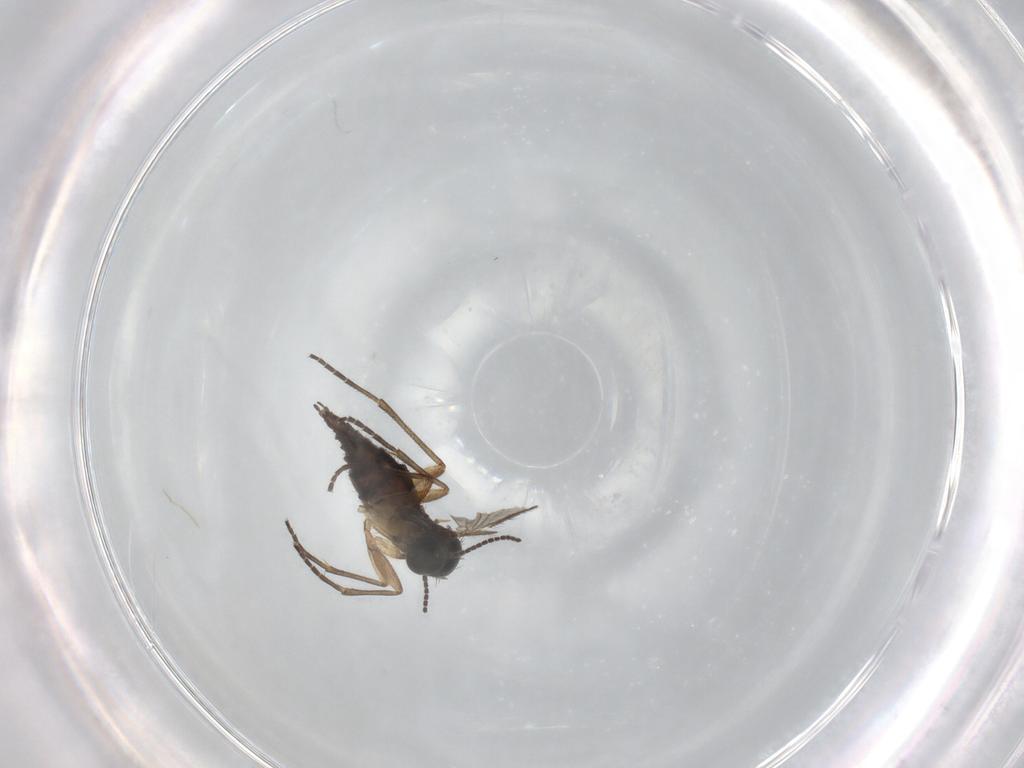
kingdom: Animalia
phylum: Arthropoda
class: Insecta
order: Diptera
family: Sciaridae
